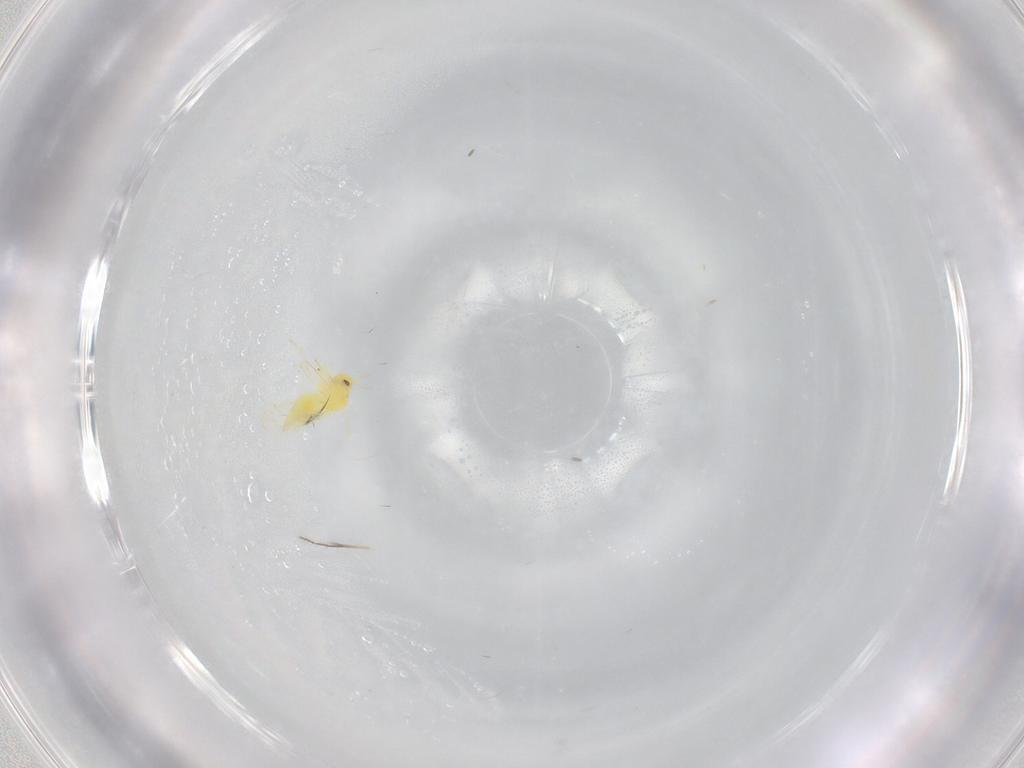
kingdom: Animalia
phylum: Arthropoda
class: Insecta
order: Hemiptera
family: Aleyrodidae
